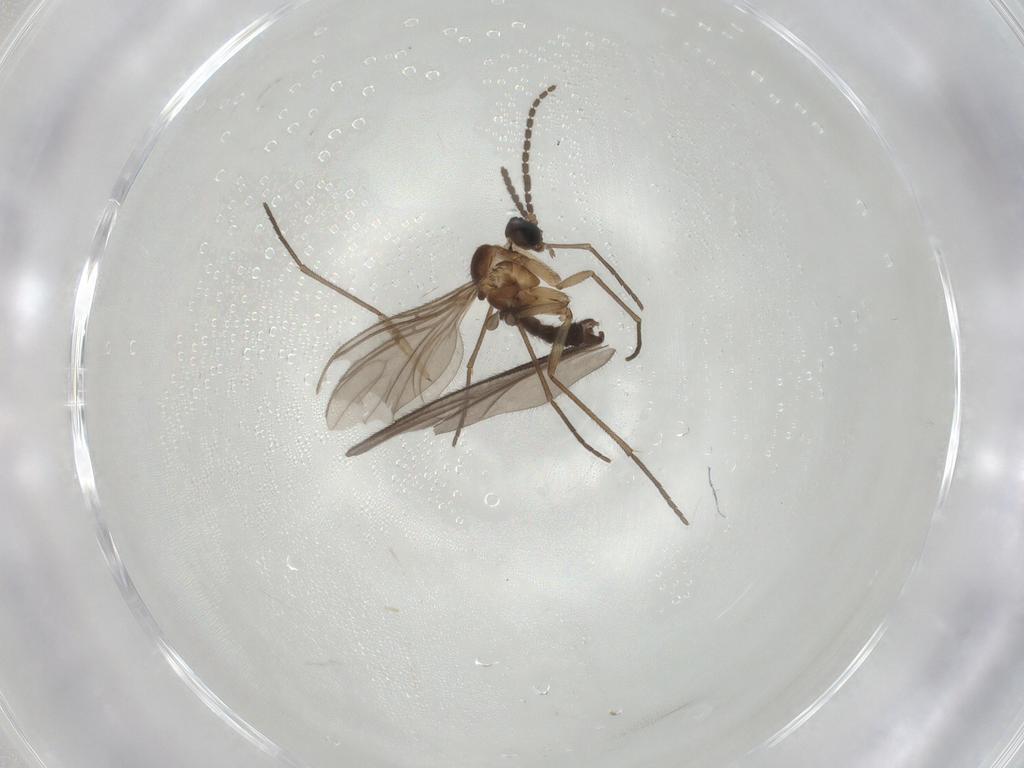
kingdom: Animalia
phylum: Arthropoda
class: Insecta
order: Diptera
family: Sciaridae
